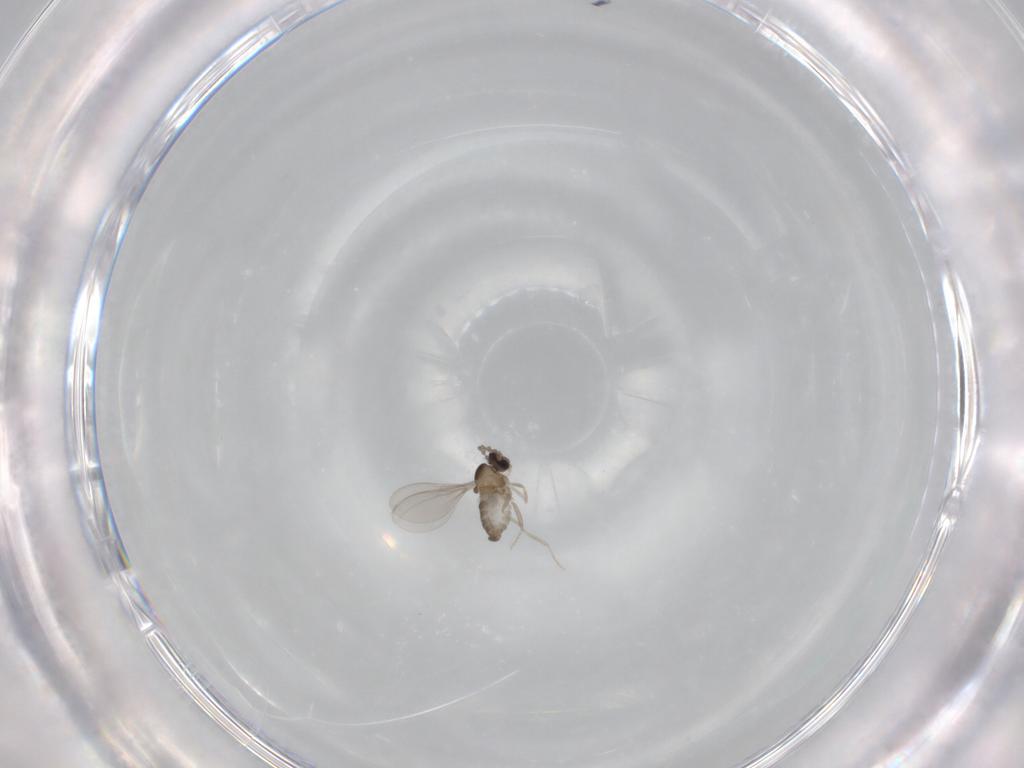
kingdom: Animalia
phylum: Arthropoda
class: Insecta
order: Diptera
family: Cecidomyiidae
